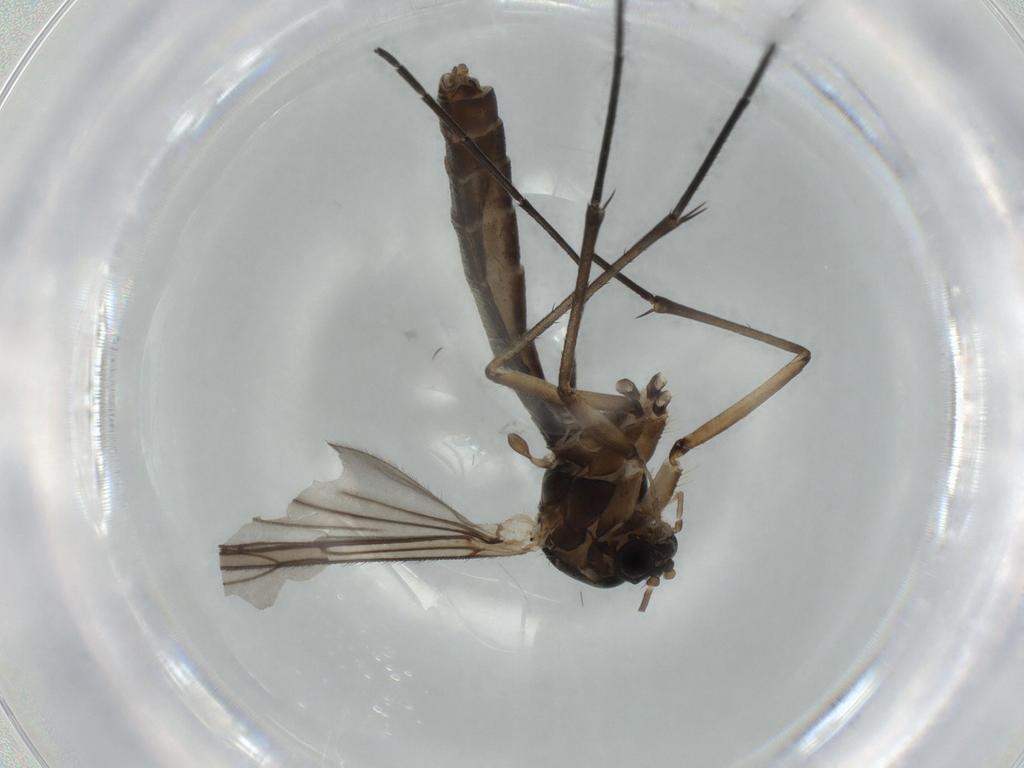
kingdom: Animalia
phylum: Arthropoda
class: Insecta
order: Diptera
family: Mycetophilidae
